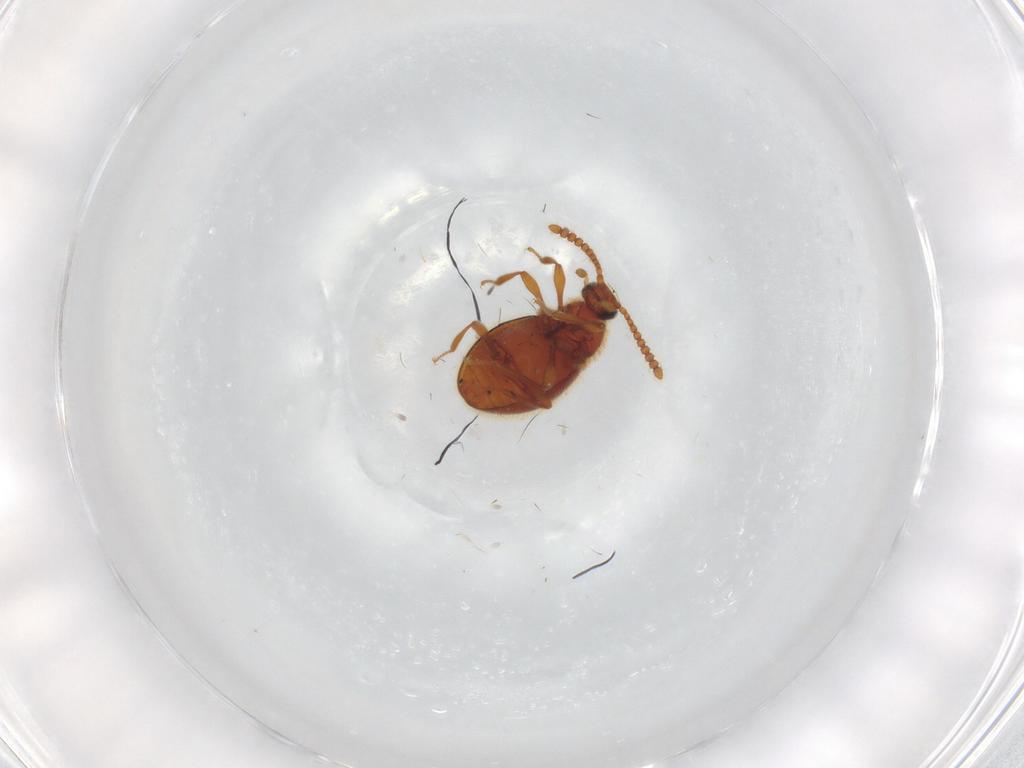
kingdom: Animalia
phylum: Arthropoda
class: Insecta
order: Coleoptera
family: Staphylinidae
